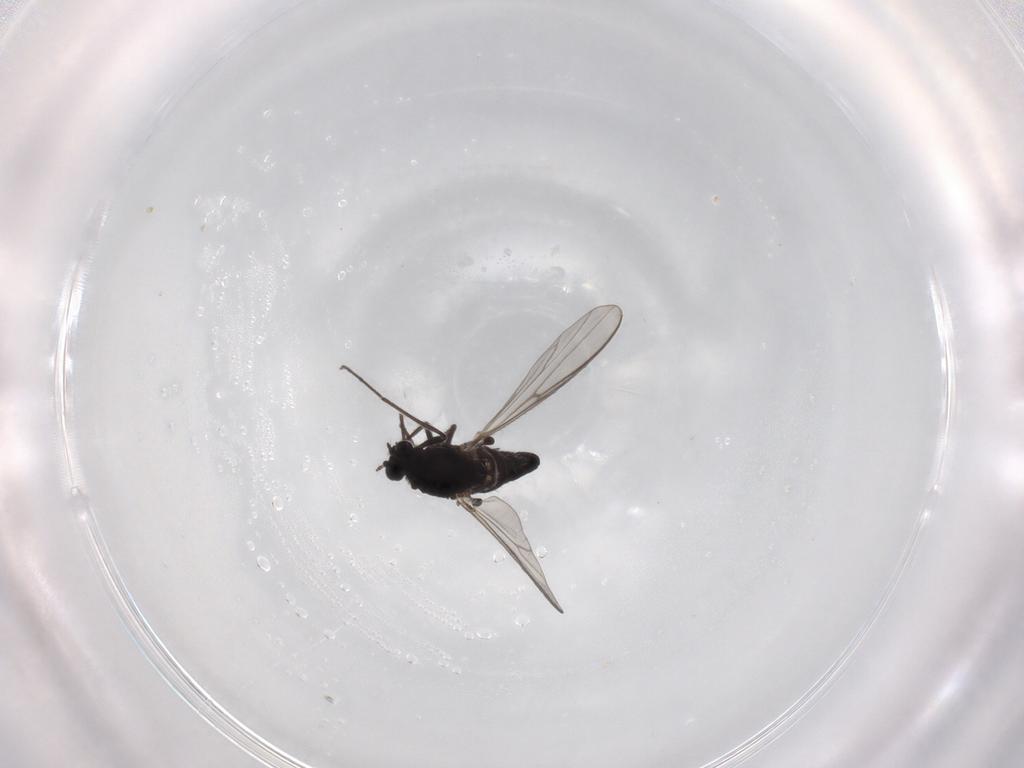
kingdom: Animalia
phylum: Arthropoda
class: Insecta
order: Diptera
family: Chironomidae
